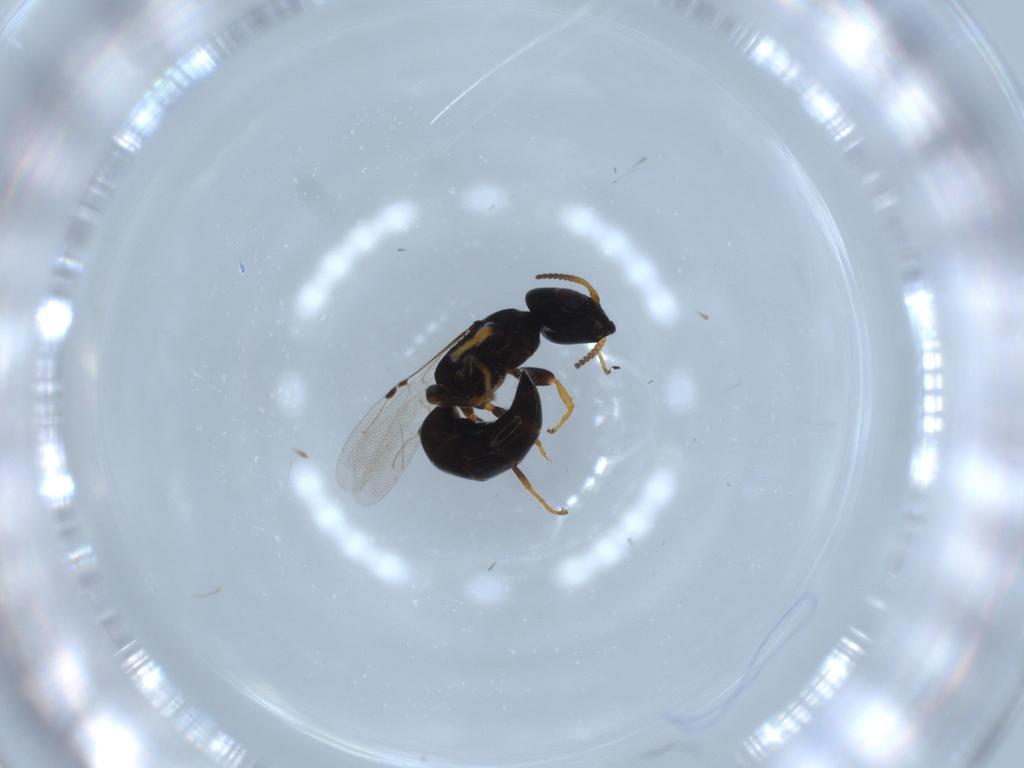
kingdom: Animalia
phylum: Arthropoda
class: Insecta
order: Hymenoptera
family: Bethylidae
